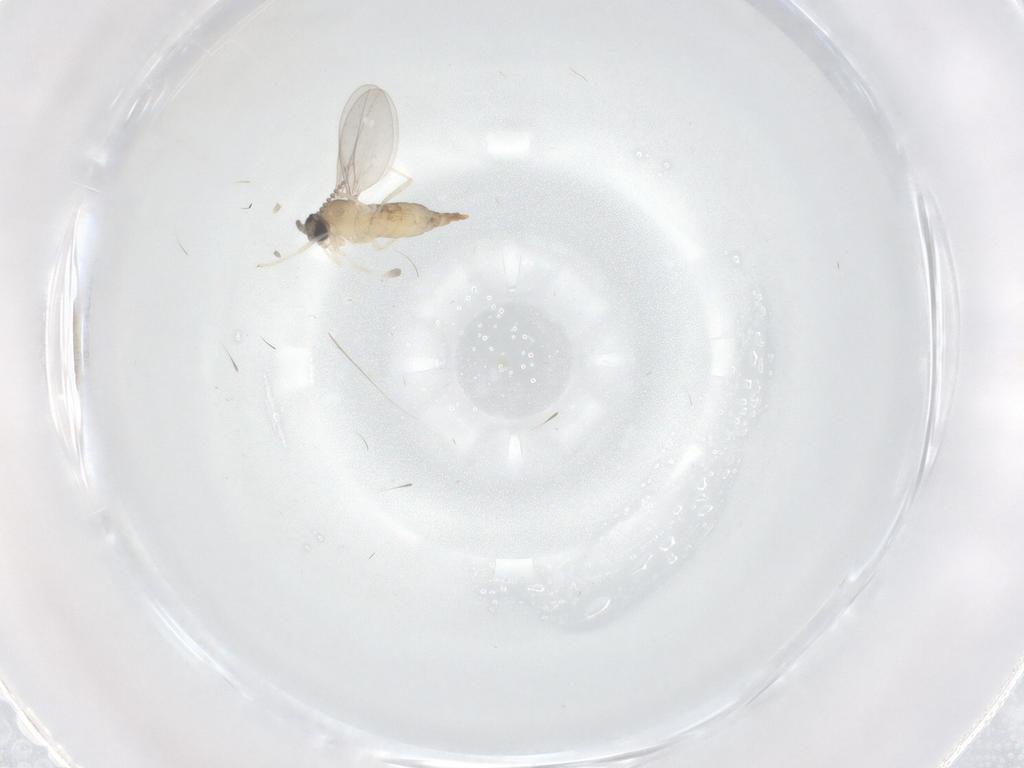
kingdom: Animalia
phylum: Arthropoda
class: Insecta
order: Diptera
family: Cecidomyiidae
